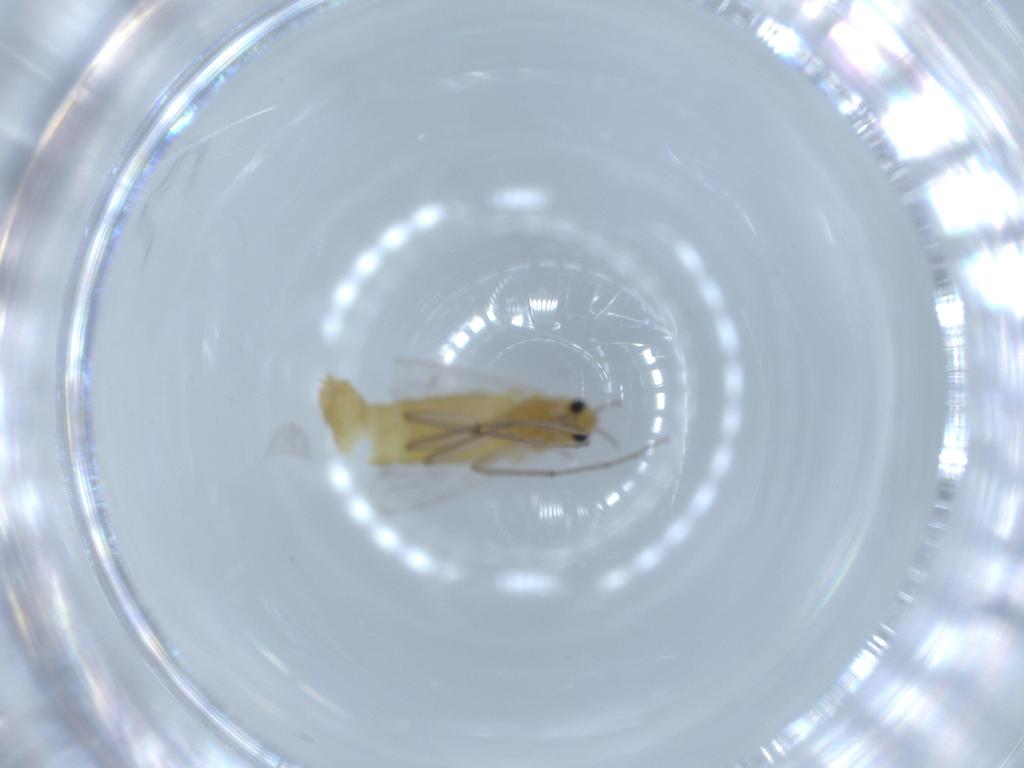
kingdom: Animalia
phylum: Arthropoda
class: Insecta
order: Diptera
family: Chironomidae
